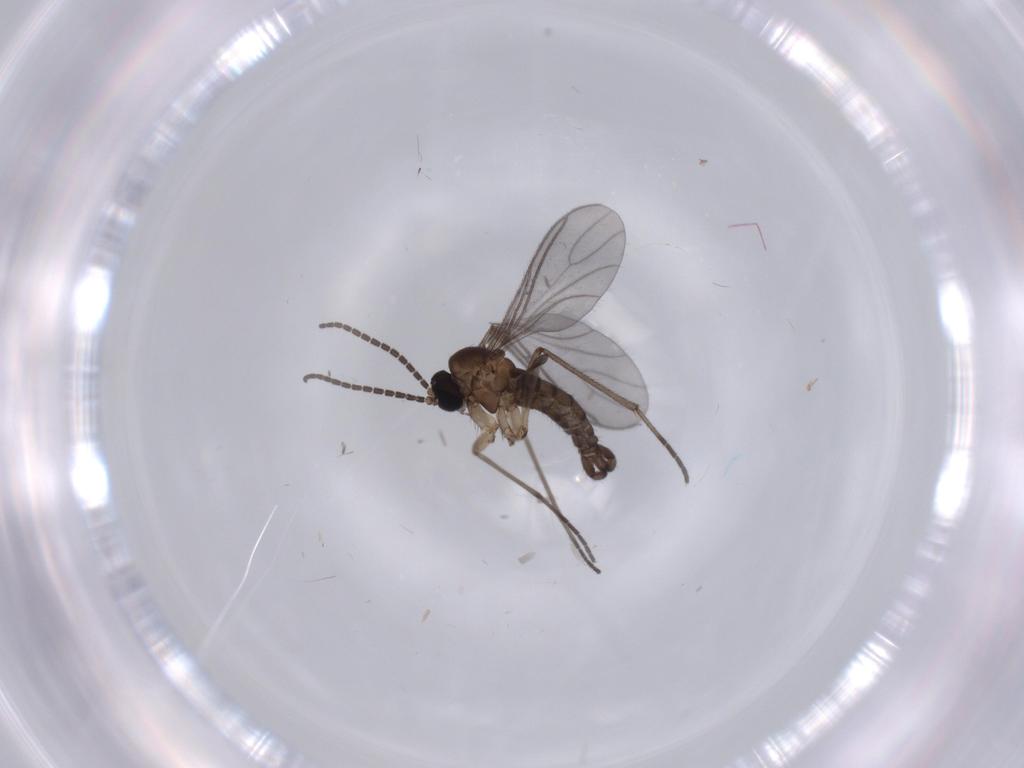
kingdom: Animalia
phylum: Arthropoda
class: Insecta
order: Diptera
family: Sciaridae
